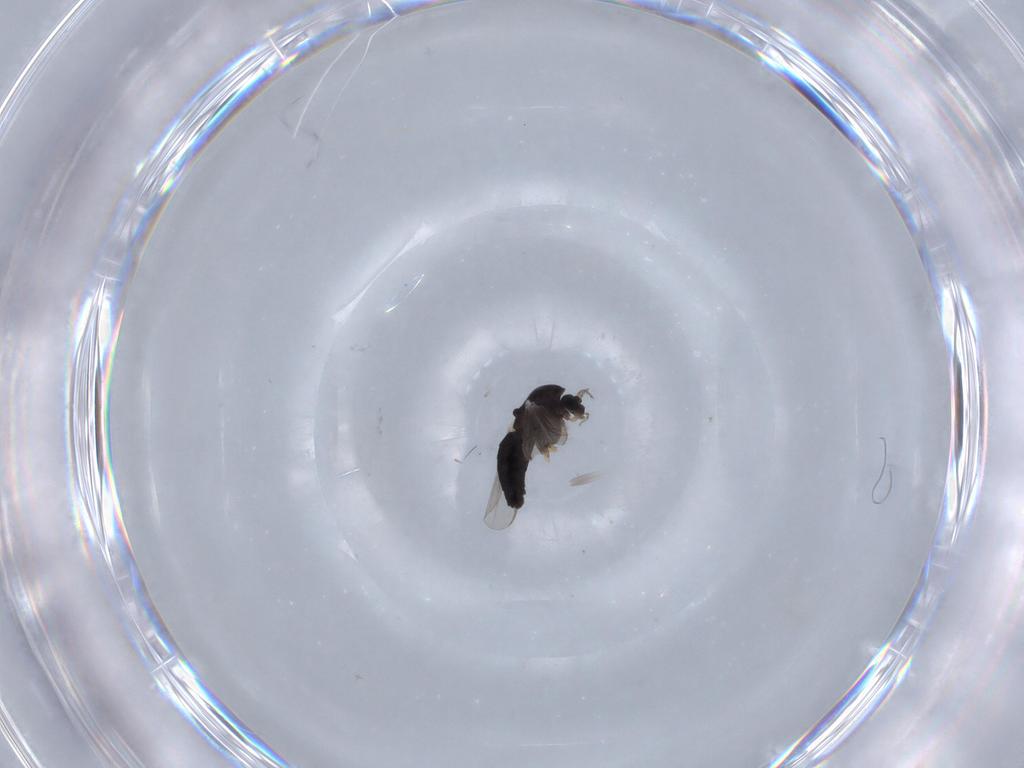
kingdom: Animalia
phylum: Arthropoda
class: Insecta
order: Diptera
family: Chironomidae
